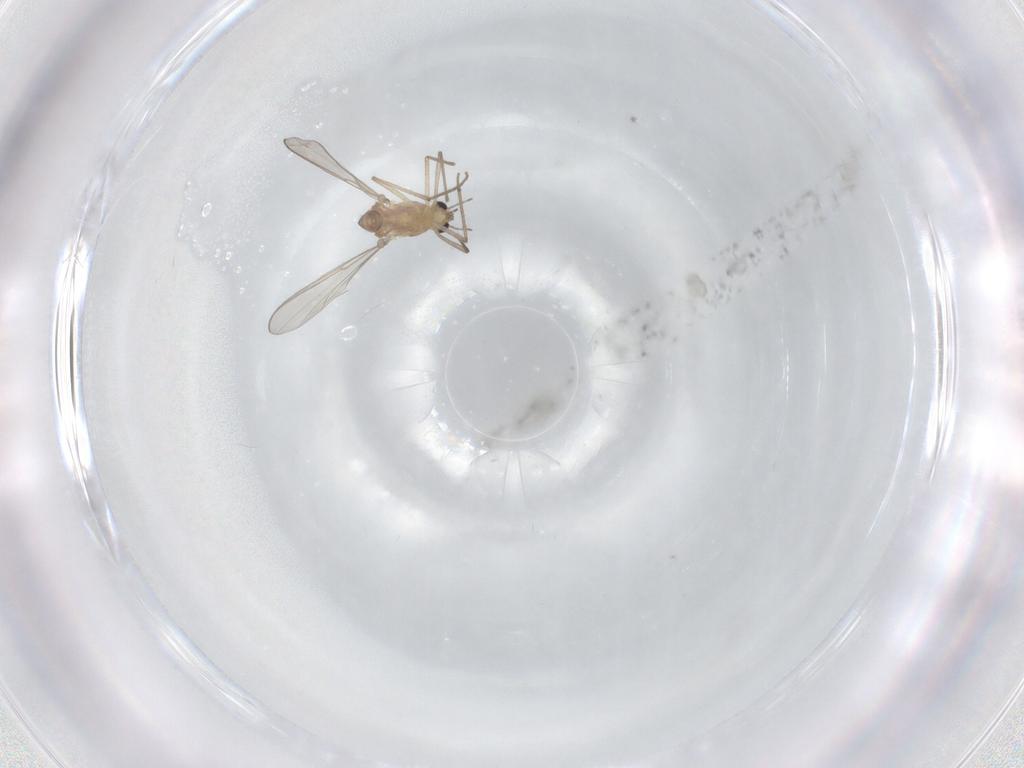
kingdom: Animalia
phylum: Arthropoda
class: Insecta
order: Diptera
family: Chironomidae
